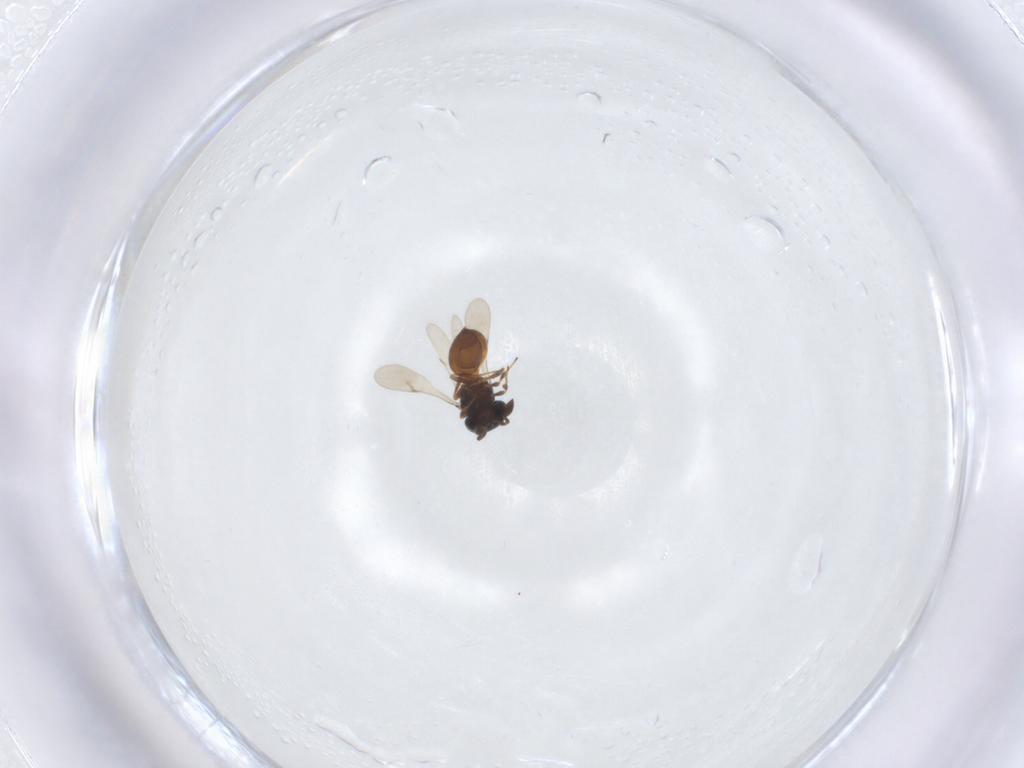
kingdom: Animalia
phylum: Arthropoda
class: Insecta
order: Hymenoptera
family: Scelionidae
